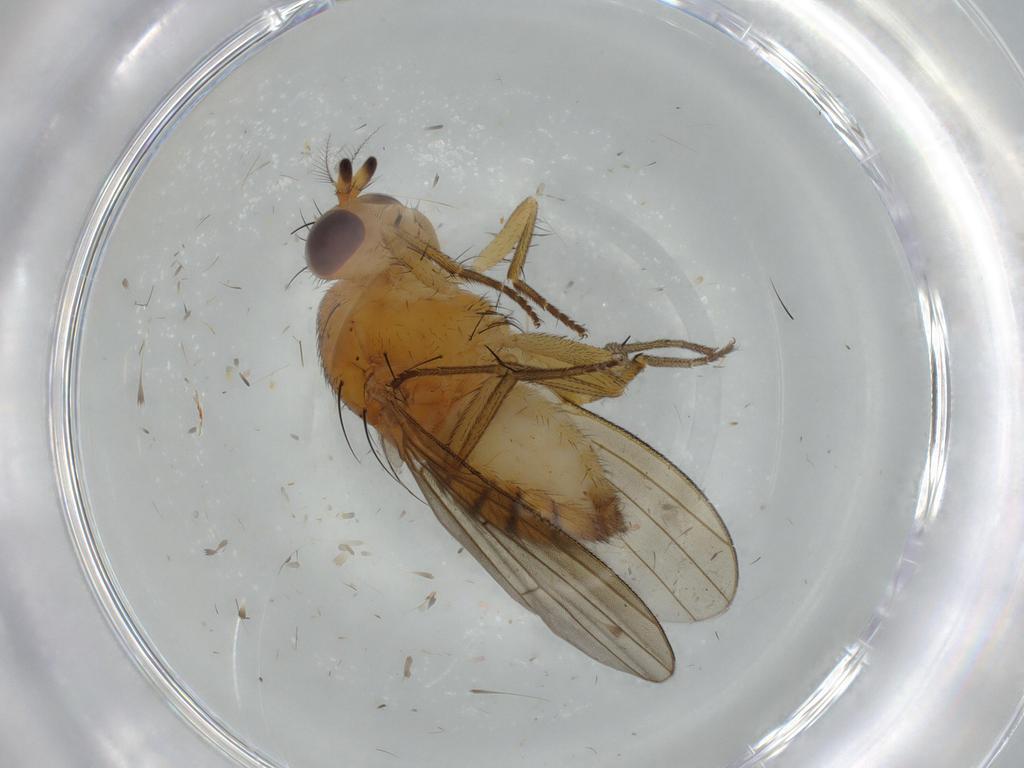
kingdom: Animalia
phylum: Arthropoda
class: Insecta
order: Diptera
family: Lauxaniidae
